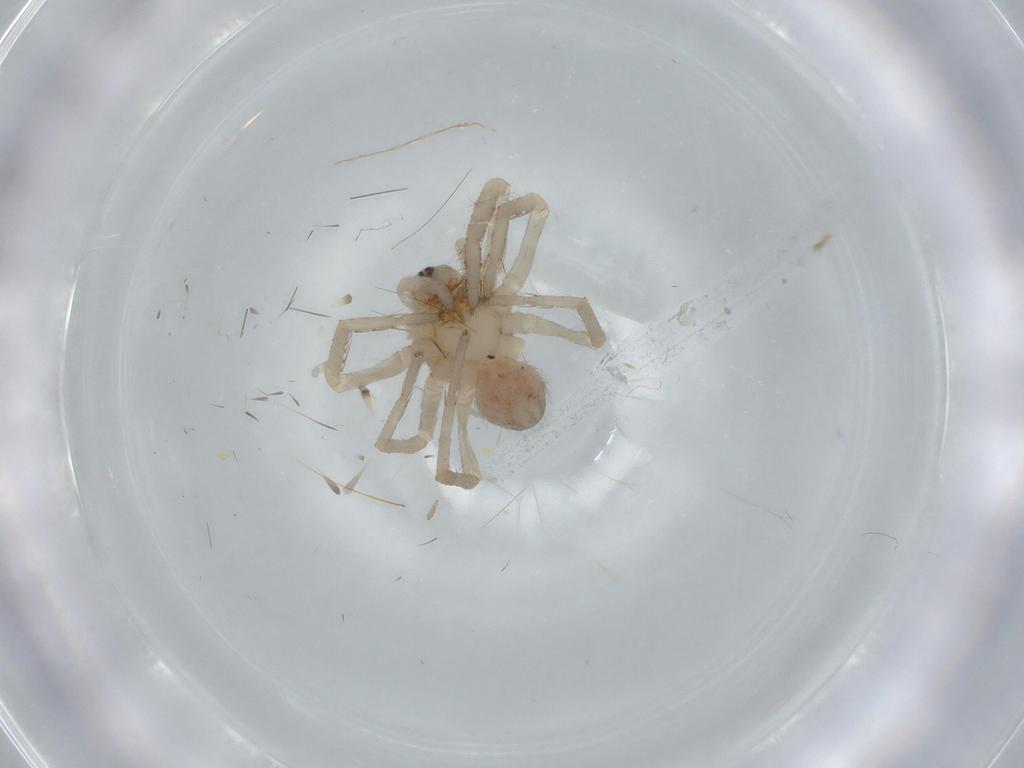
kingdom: Animalia
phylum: Arthropoda
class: Arachnida
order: Araneae
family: Ctenidae
